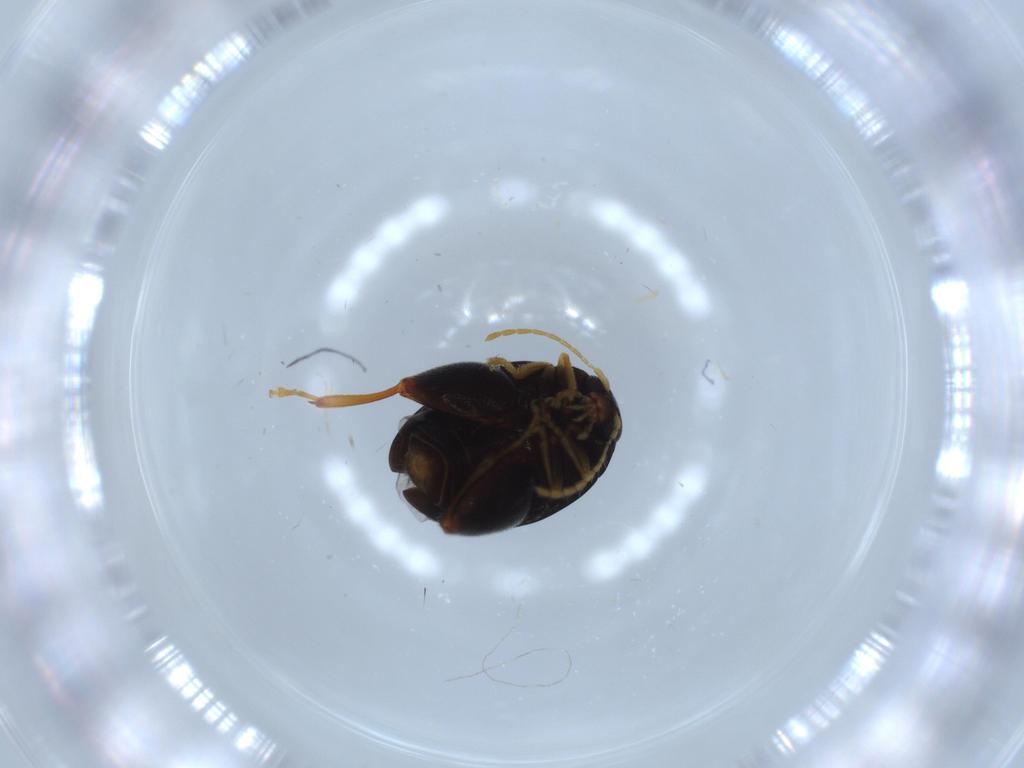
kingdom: Animalia
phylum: Arthropoda
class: Insecta
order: Coleoptera
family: Chrysomelidae
